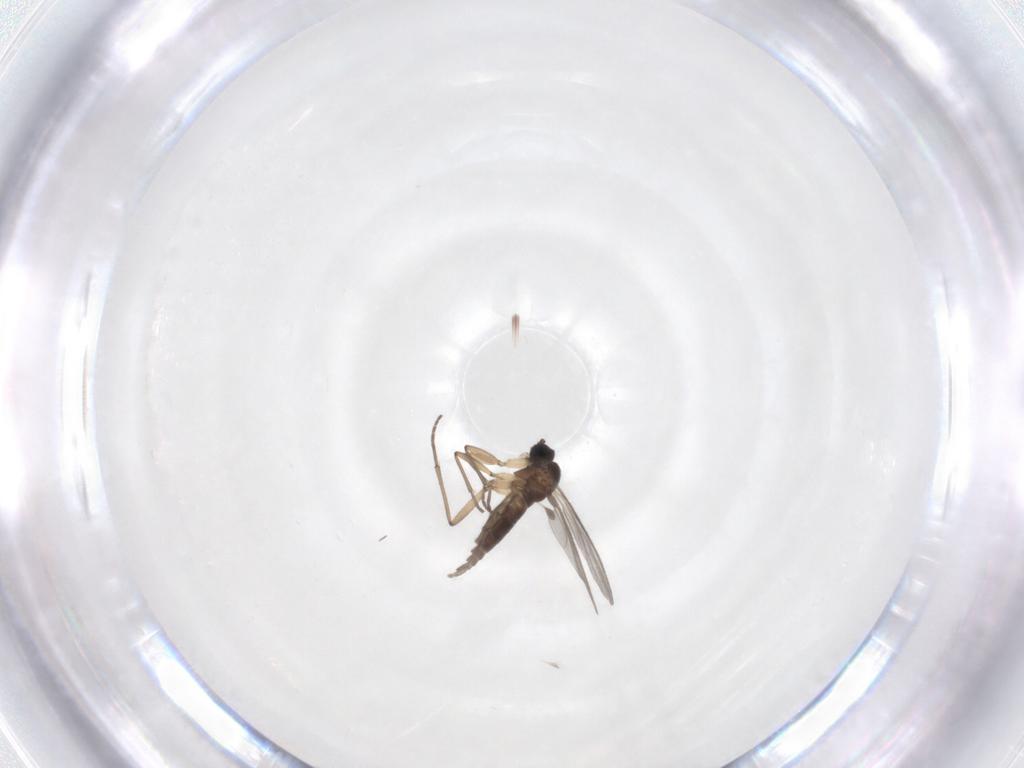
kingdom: Animalia
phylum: Arthropoda
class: Insecta
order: Diptera
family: Sciaridae
